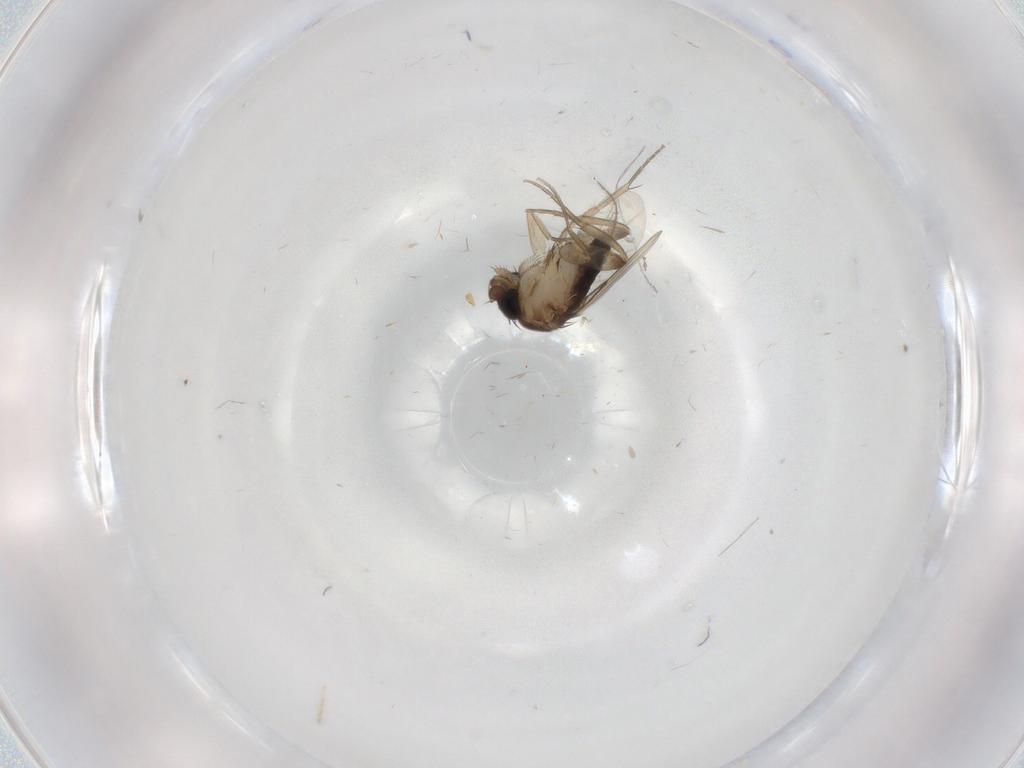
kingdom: Animalia
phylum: Arthropoda
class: Insecta
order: Diptera
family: Phoridae
